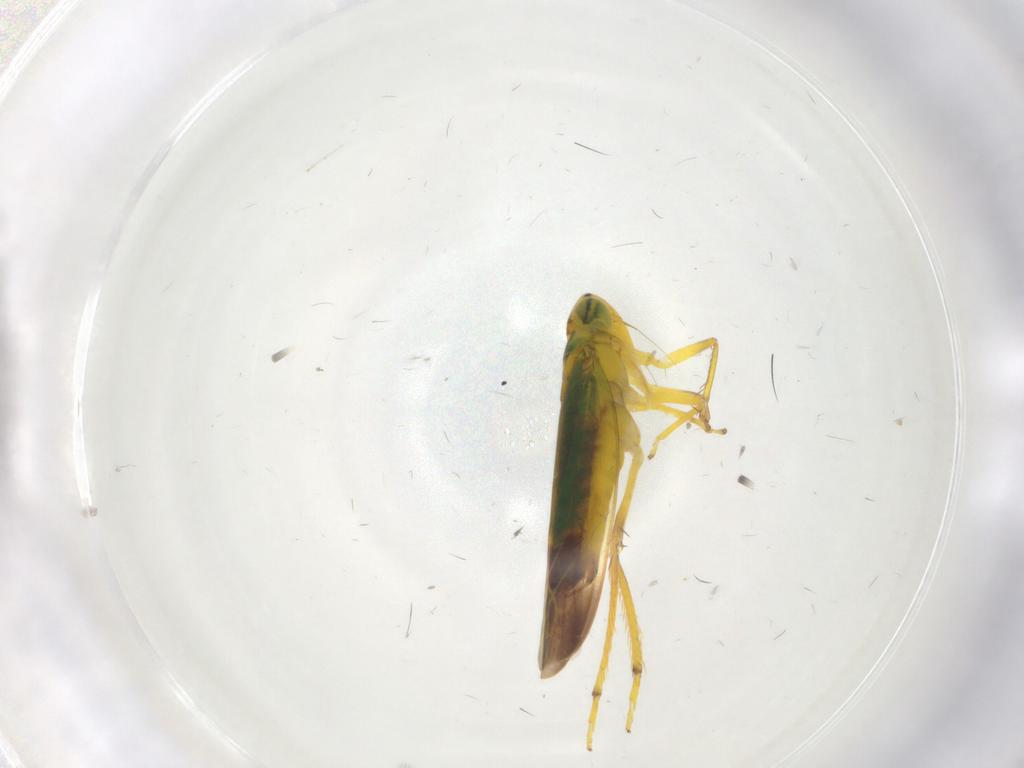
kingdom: Animalia
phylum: Arthropoda
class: Insecta
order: Hemiptera
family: Cicadellidae
